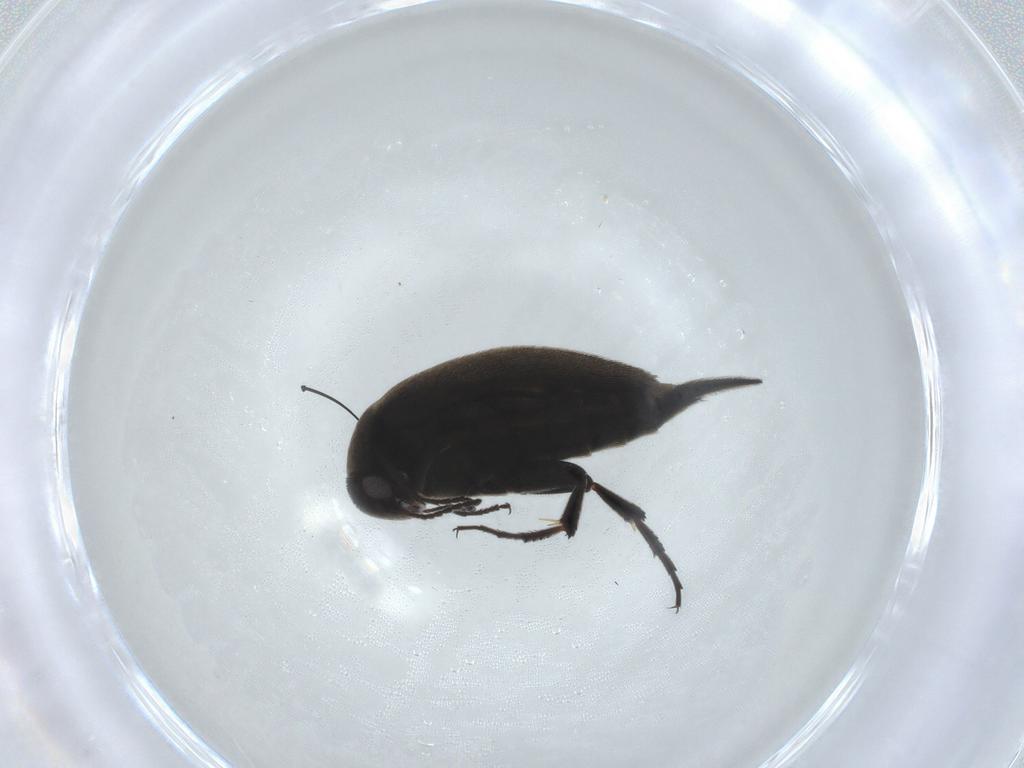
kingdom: Animalia
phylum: Arthropoda
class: Insecta
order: Coleoptera
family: Mordellidae
